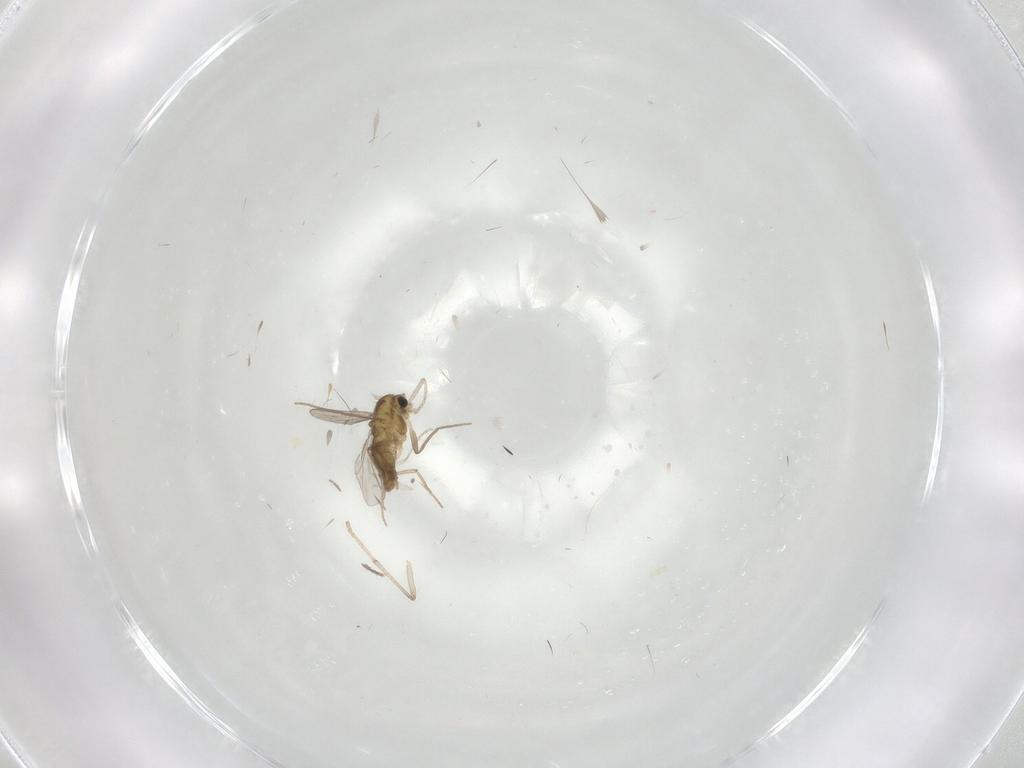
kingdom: Animalia
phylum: Arthropoda
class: Insecta
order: Diptera
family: Chironomidae
